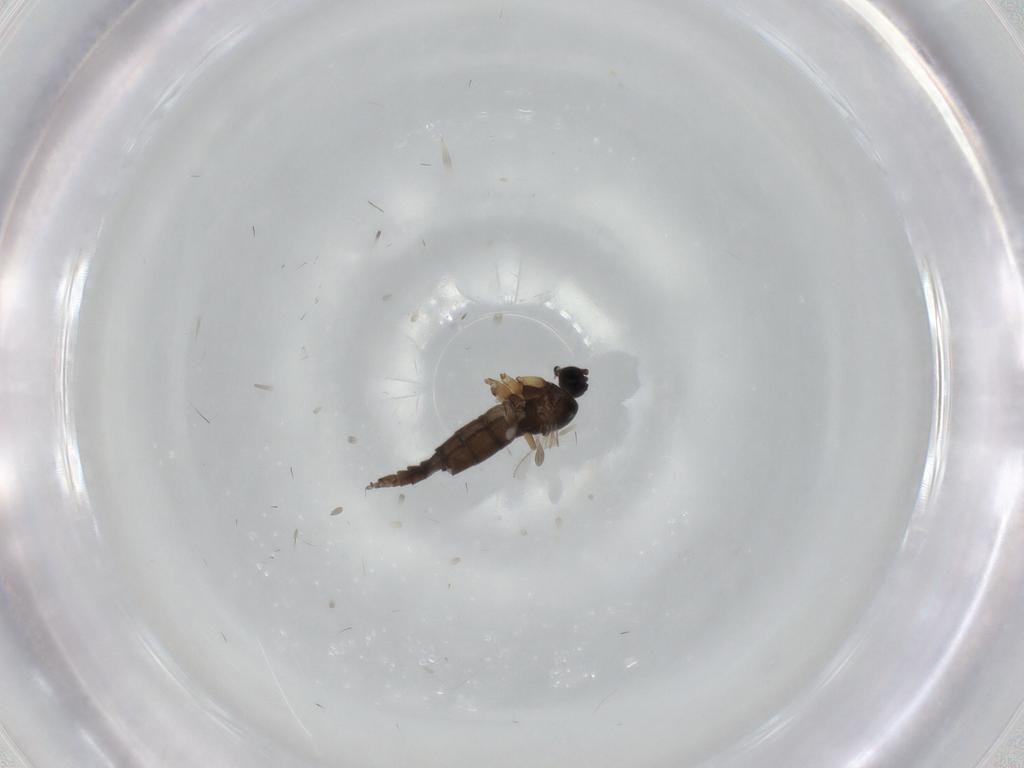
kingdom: Animalia
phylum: Arthropoda
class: Insecta
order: Diptera
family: Sciaridae
